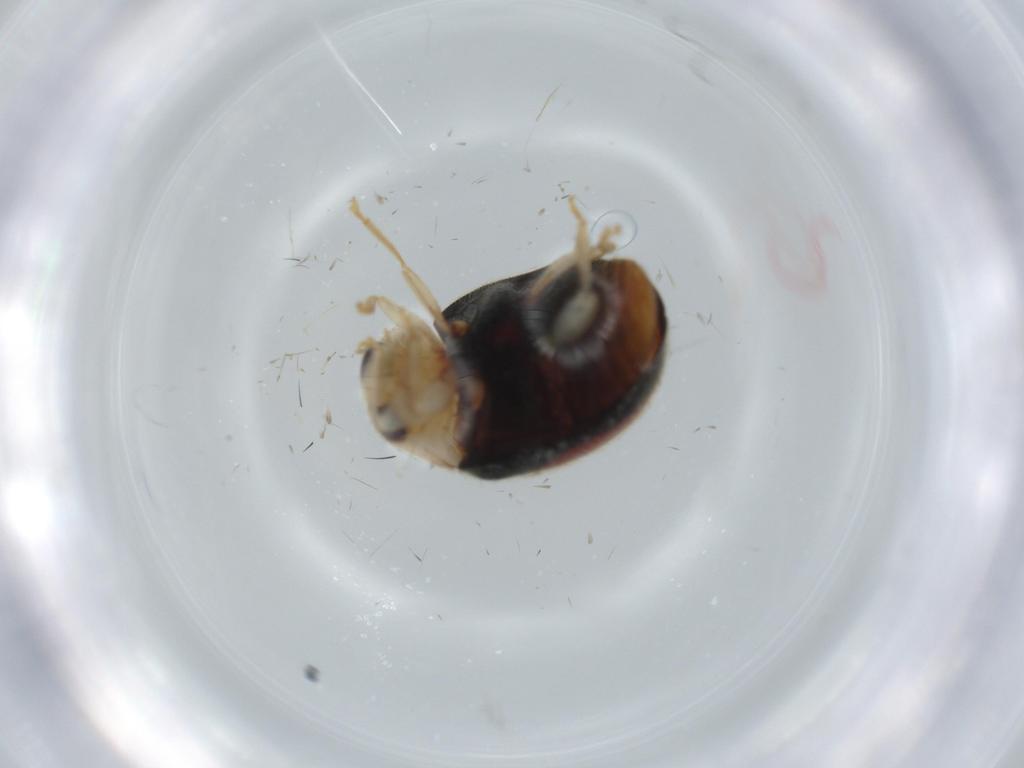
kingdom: Animalia
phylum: Arthropoda
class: Insecta
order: Coleoptera
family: Coccinellidae
